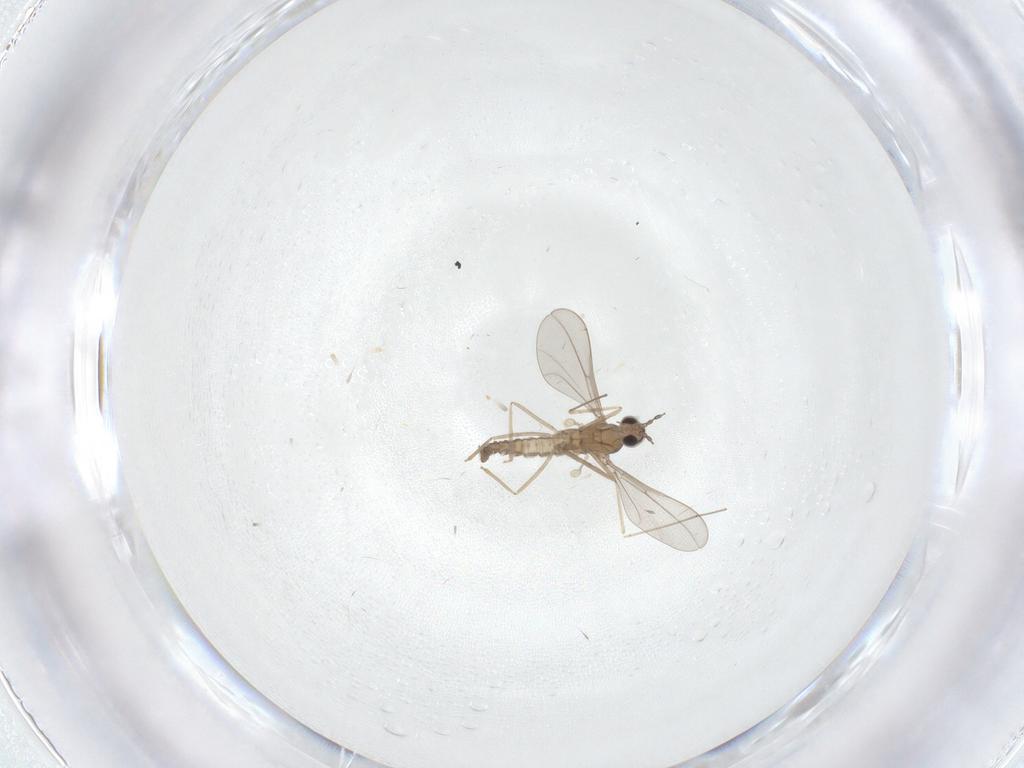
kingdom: Animalia
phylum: Arthropoda
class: Insecta
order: Diptera
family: Cecidomyiidae
